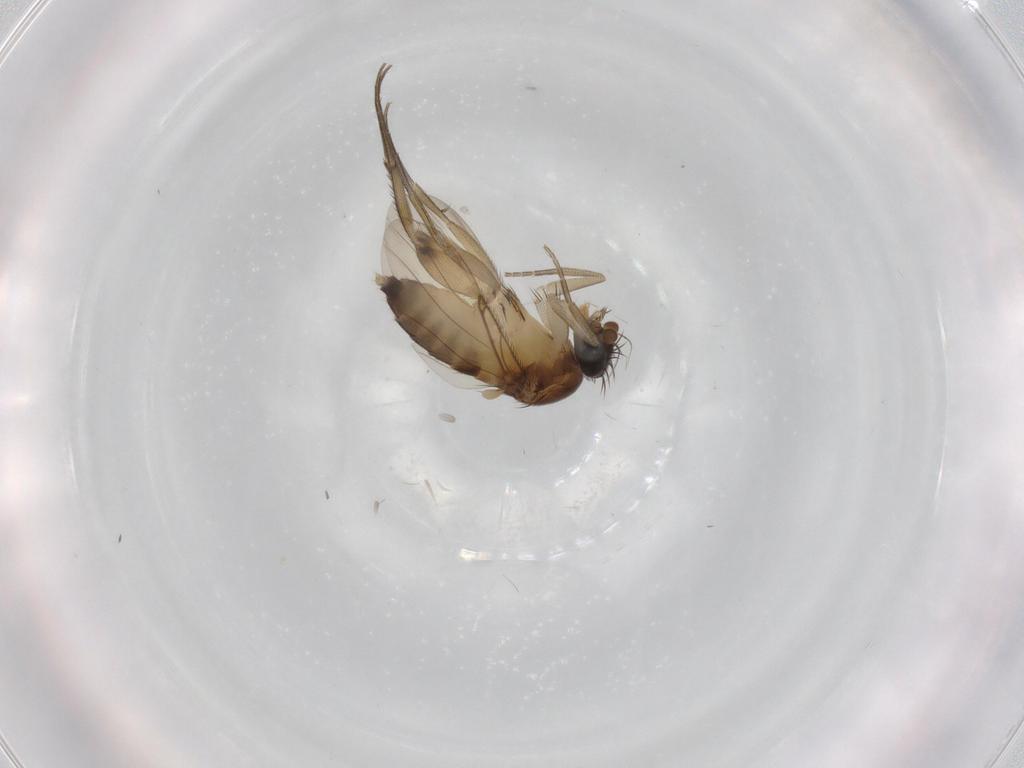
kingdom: Animalia
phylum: Arthropoda
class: Insecta
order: Diptera
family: Phoridae
